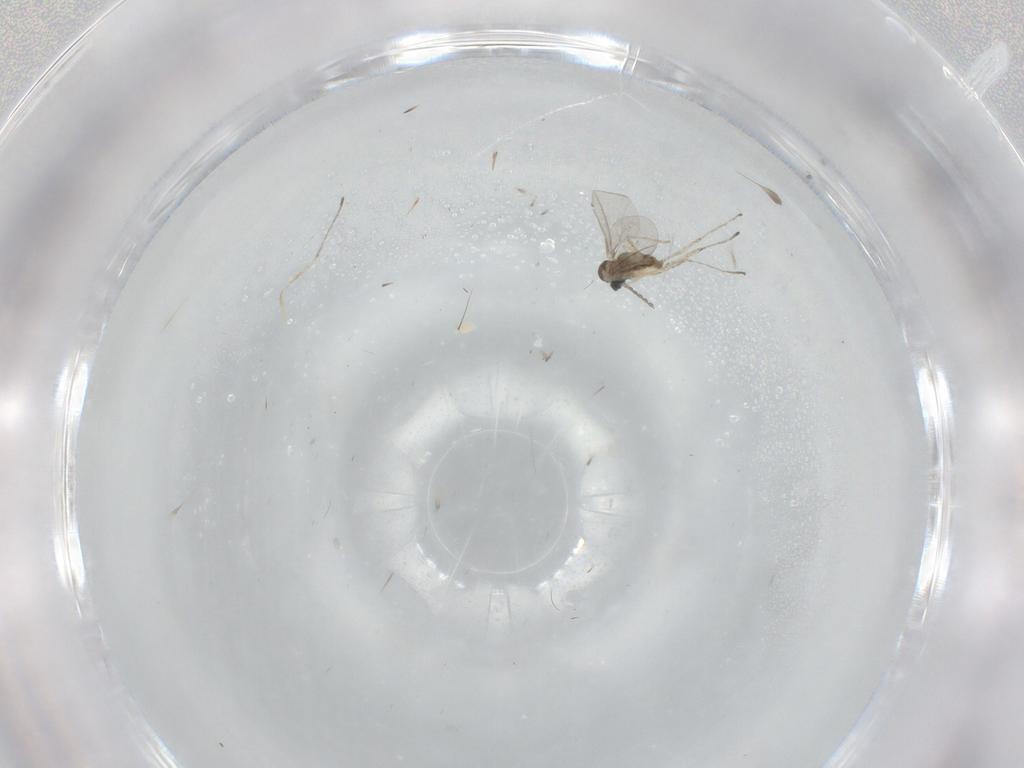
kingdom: Animalia
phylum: Arthropoda
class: Insecta
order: Diptera
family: Cecidomyiidae
